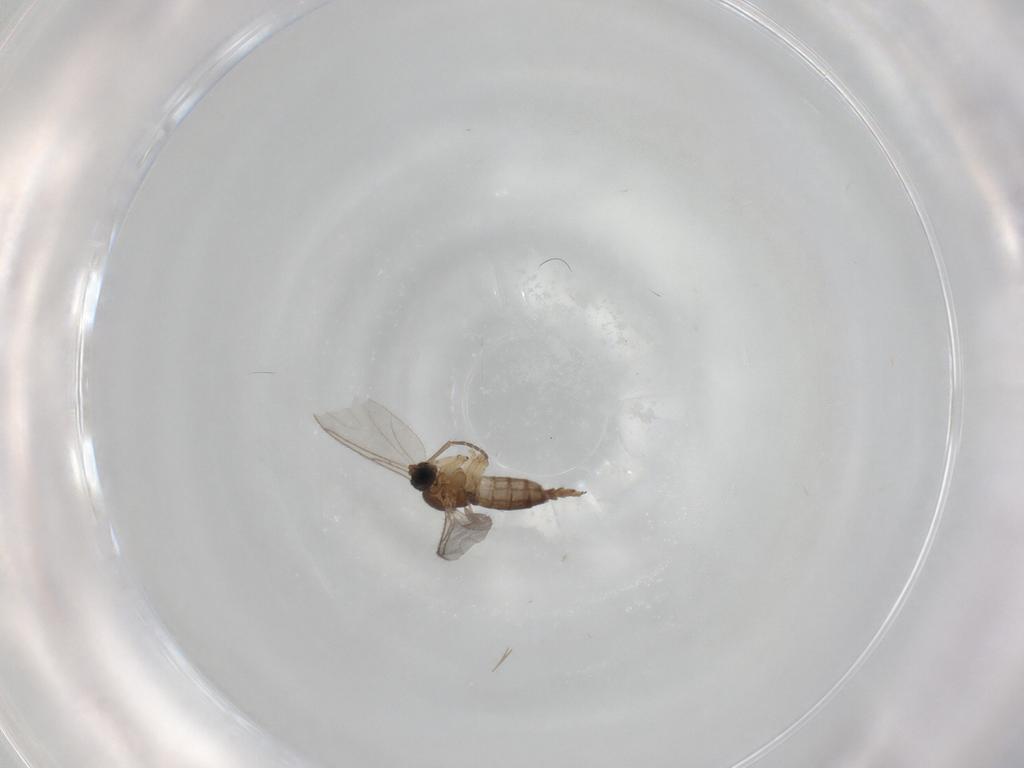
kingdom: Animalia
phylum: Arthropoda
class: Insecta
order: Diptera
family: Sciaridae
